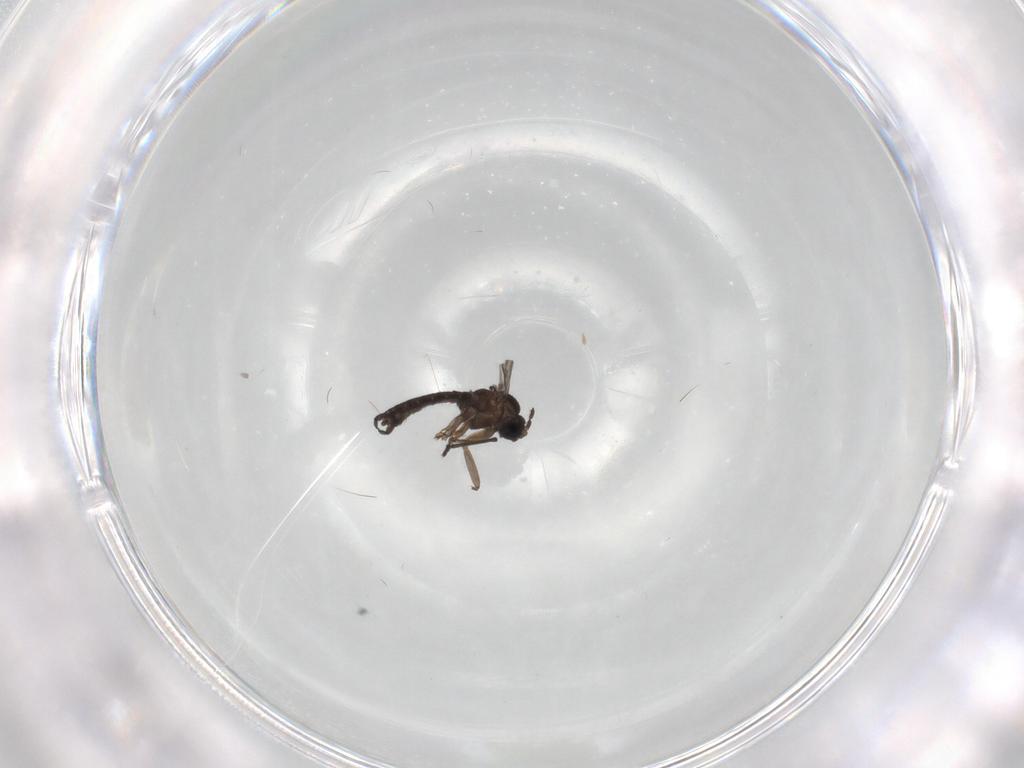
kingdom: Animalia
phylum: Arthropoda
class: Insecta
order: Diptera
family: Sciaridae
